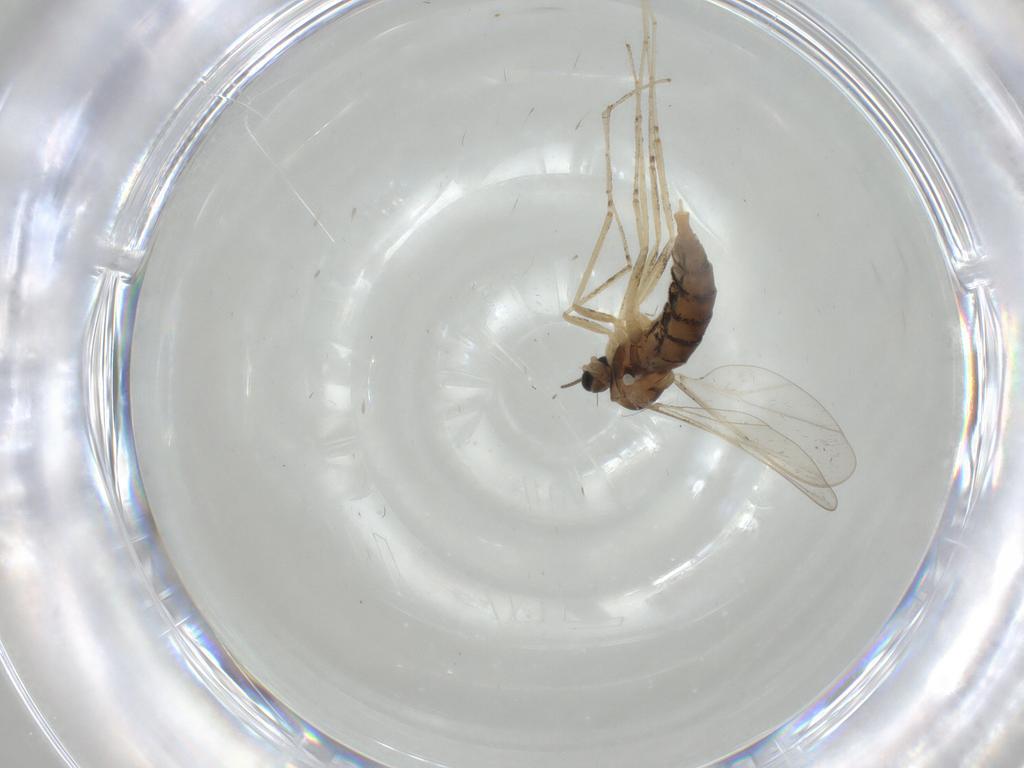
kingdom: Animalia
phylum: Arthropoda
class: Insecta
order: Diptera
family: Cecidomyiidae
